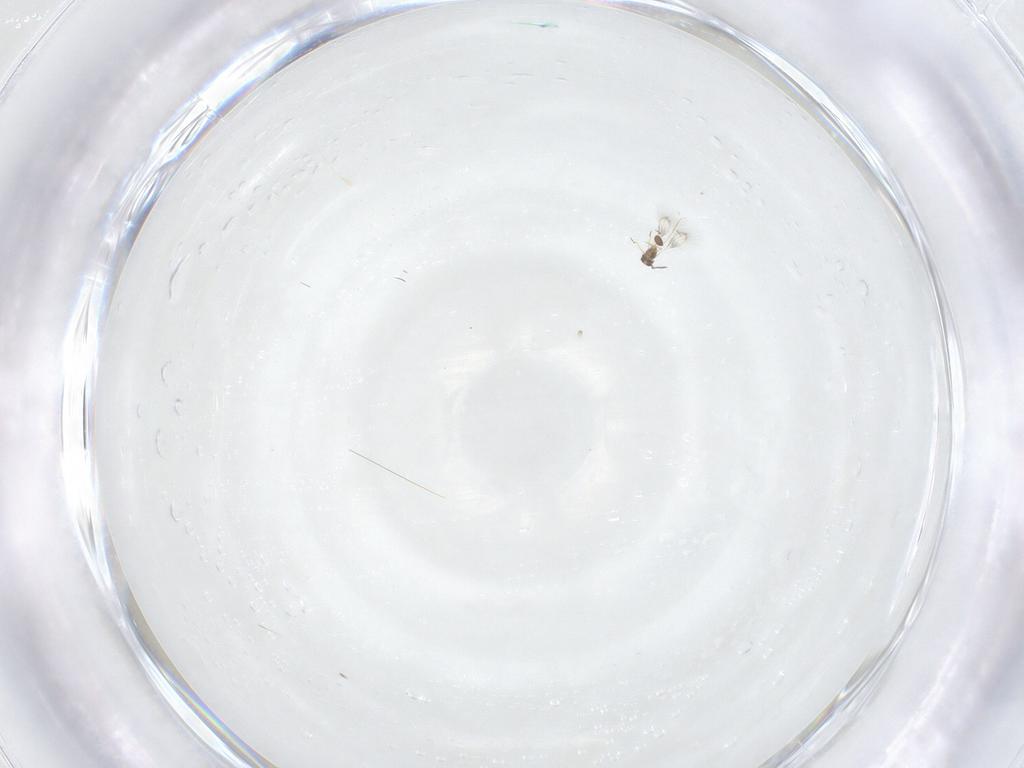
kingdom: Animalia
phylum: Arthropoda
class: Insecta
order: Hymenoptera
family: Mymarommatidae
